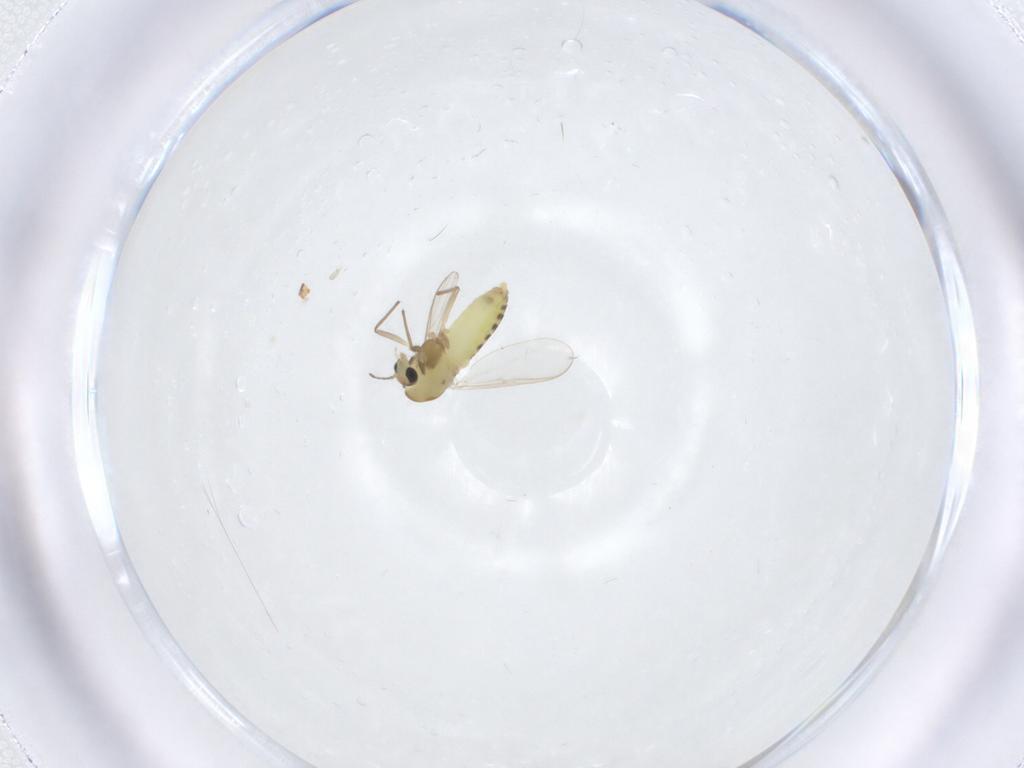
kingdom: Animalia
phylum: Arthropoda
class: Insecta
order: Diptera
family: Chironomidae
